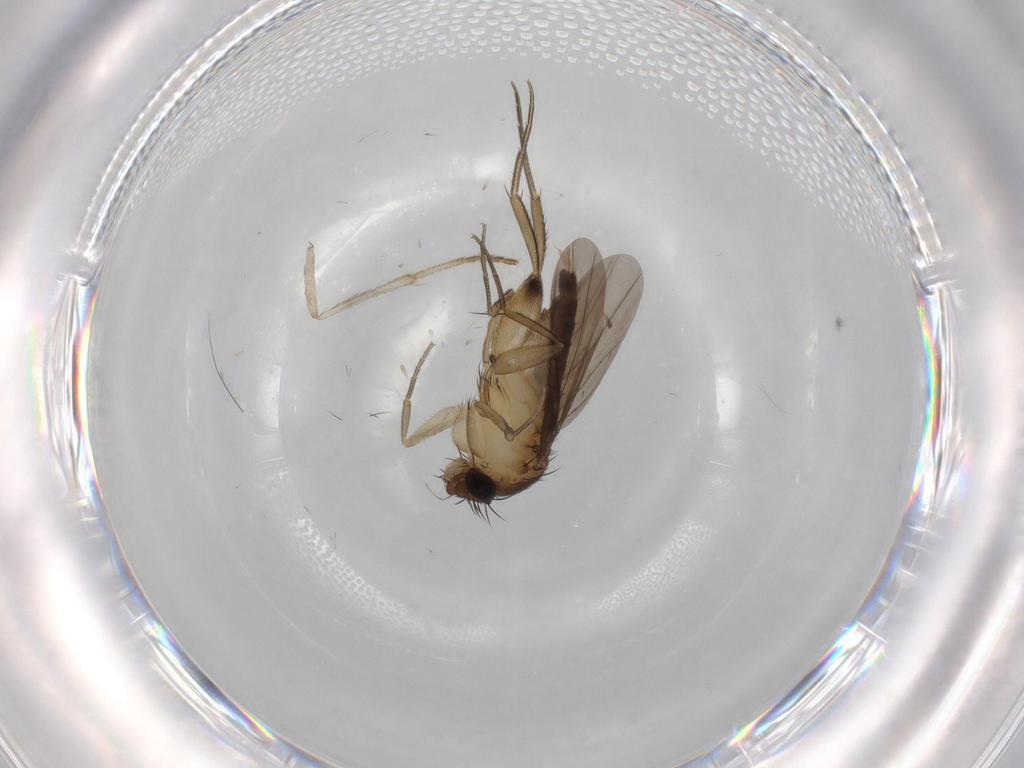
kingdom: Animalia
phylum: Arthropoda
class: Insecta
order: Diptera
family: Phoridae
